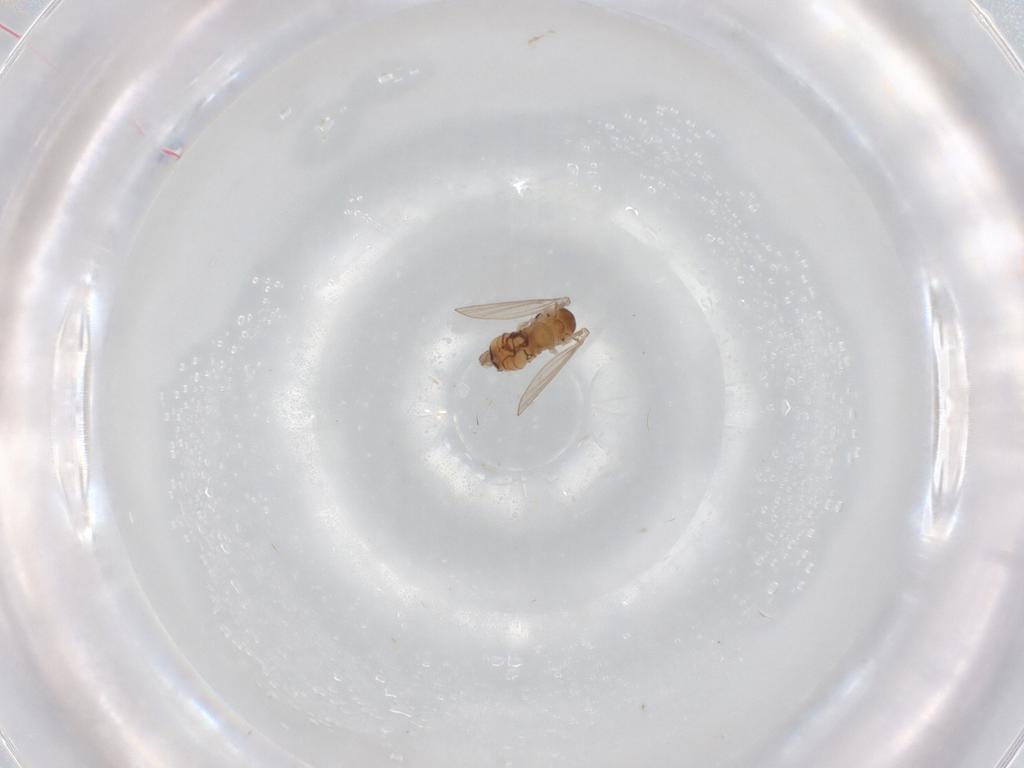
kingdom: Animalia
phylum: Arthropoda
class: Insecta
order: Diptera
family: Psychodidae
